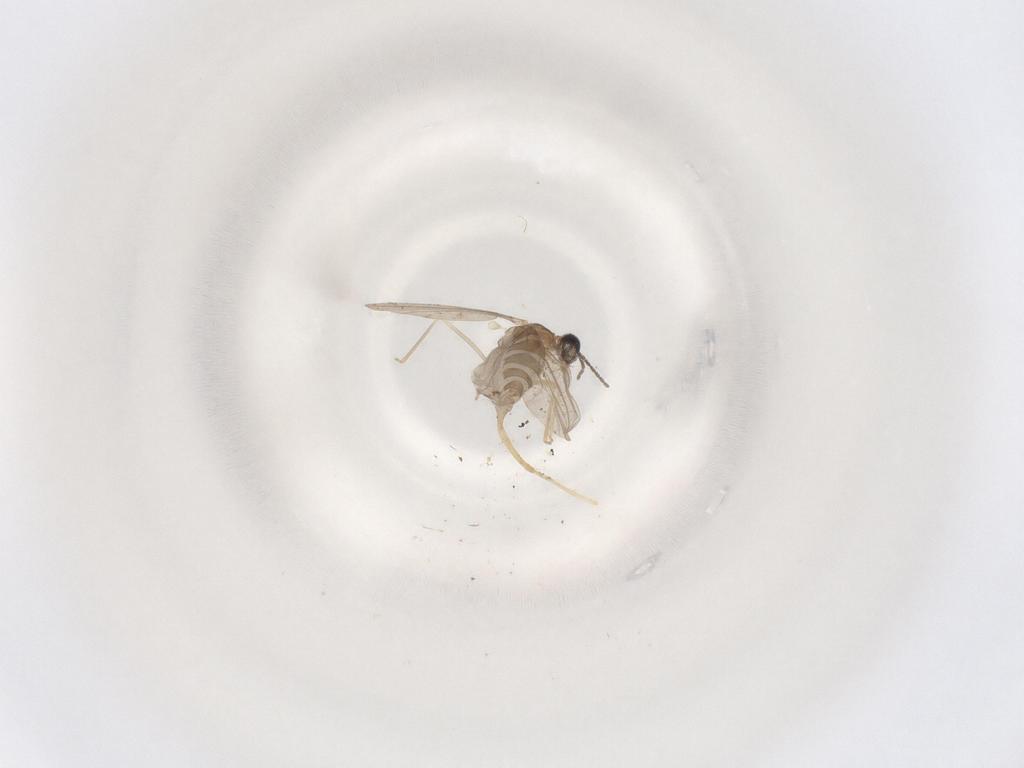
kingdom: Animalia
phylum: Arthropoda
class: Insecta
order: Diptera
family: Cecidomyiidae
